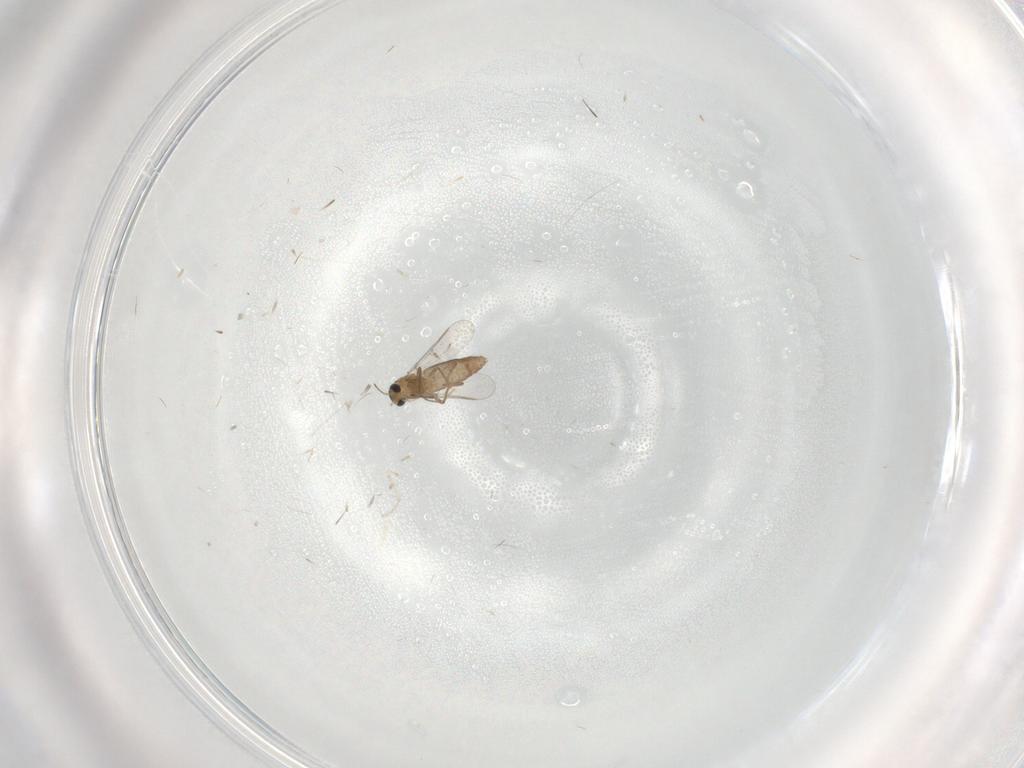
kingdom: Animalia
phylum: Arthropoda
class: Insecta
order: Diptera
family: Chironomidae
